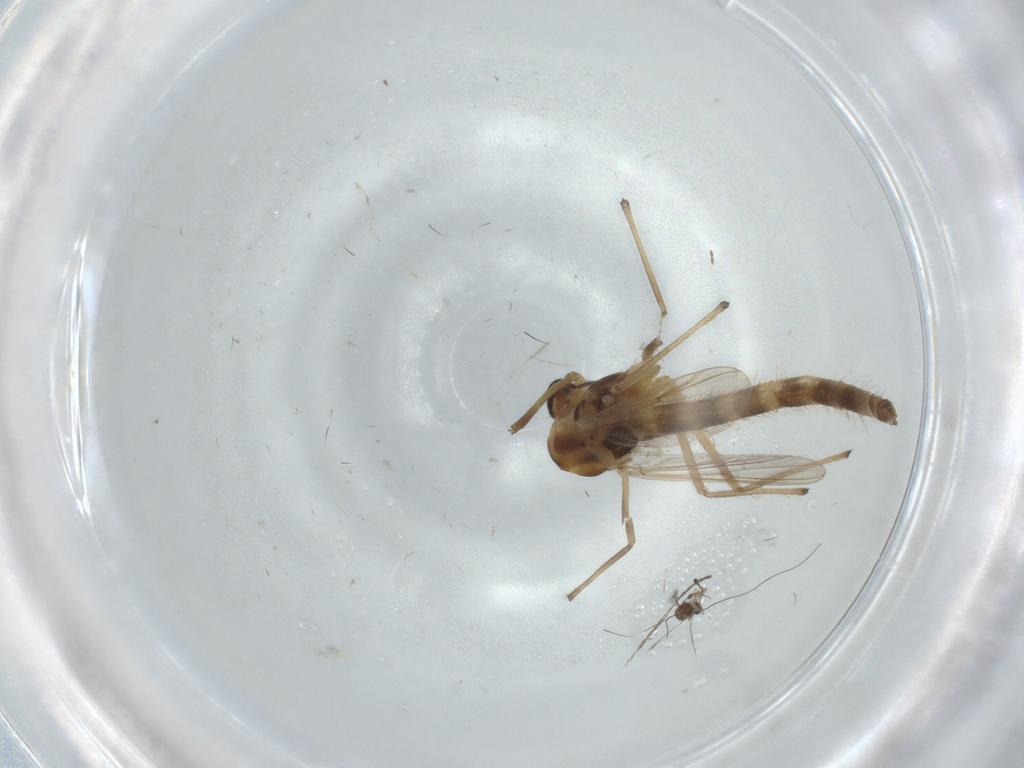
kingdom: Animalia
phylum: Arthropoda
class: Insecta
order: Diptera
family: Chironomidae
